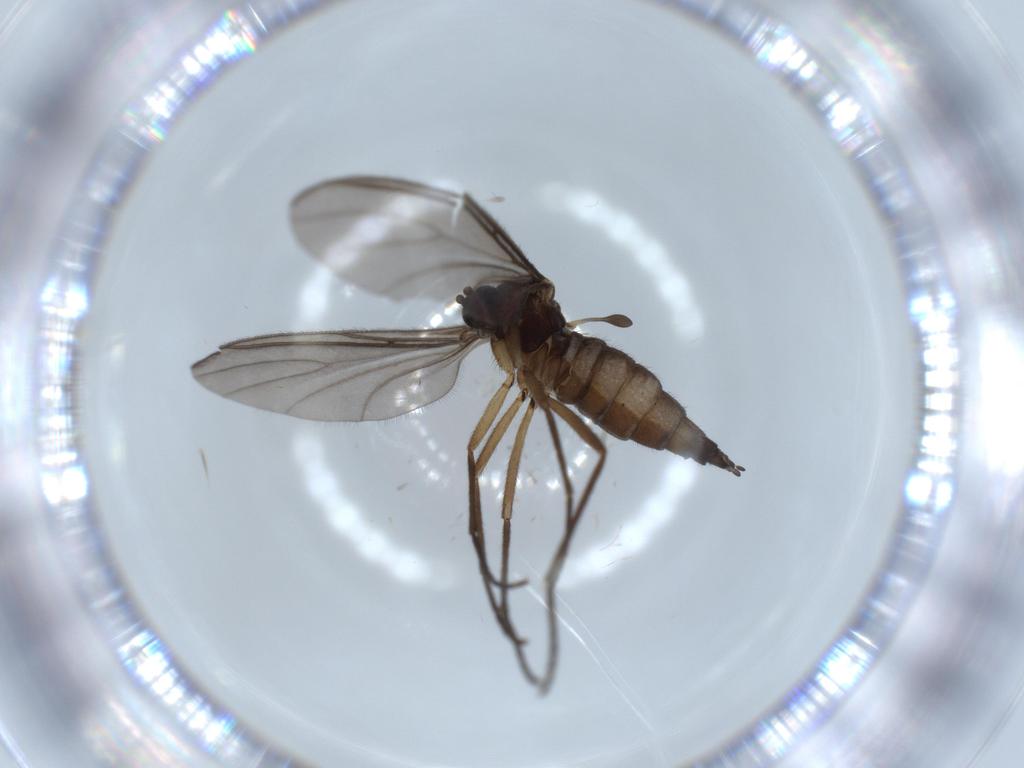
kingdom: Animalia
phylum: Arthropoda
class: Insecta
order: Diptera
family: Sciaridae
